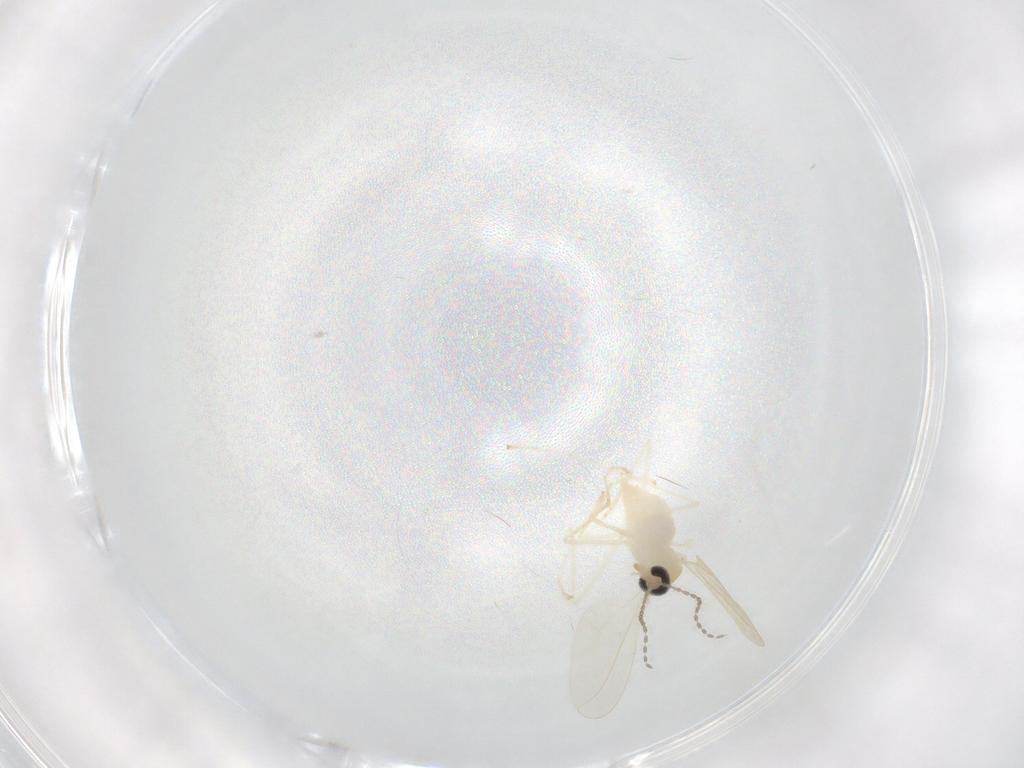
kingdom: Animalia
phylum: Arthropoda
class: Insecta
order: Diptera
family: Cecidomyiidae
